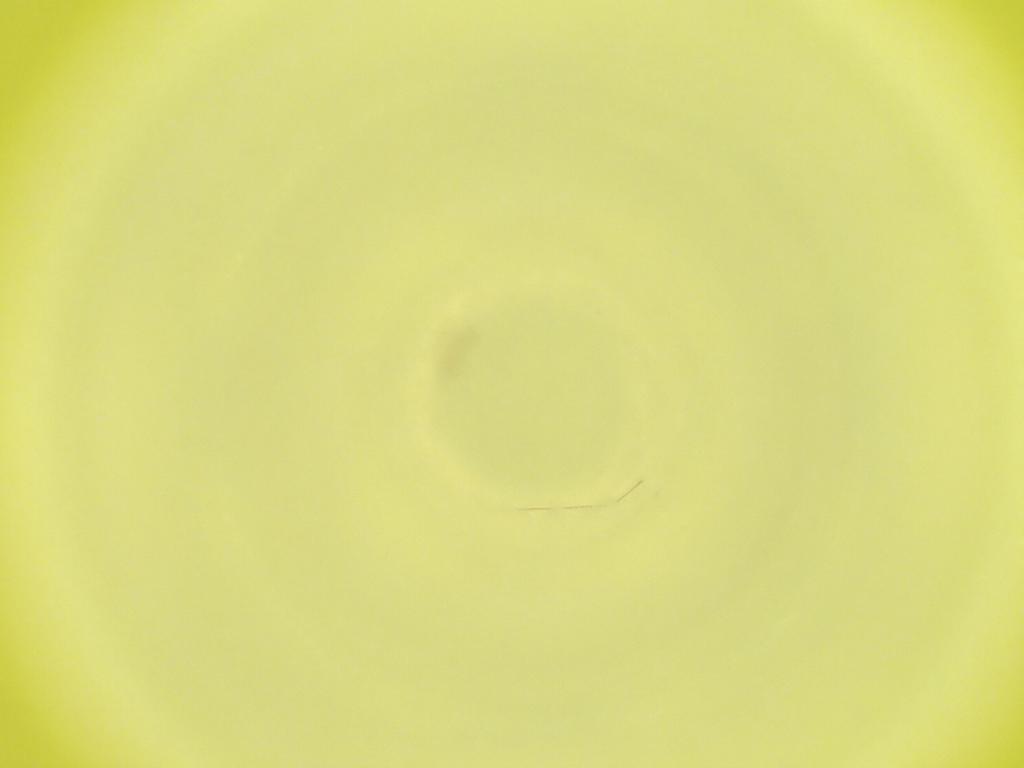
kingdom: Animalia
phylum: Arthropoda
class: Insecta
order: Diptera
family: Cecidomyiidae
